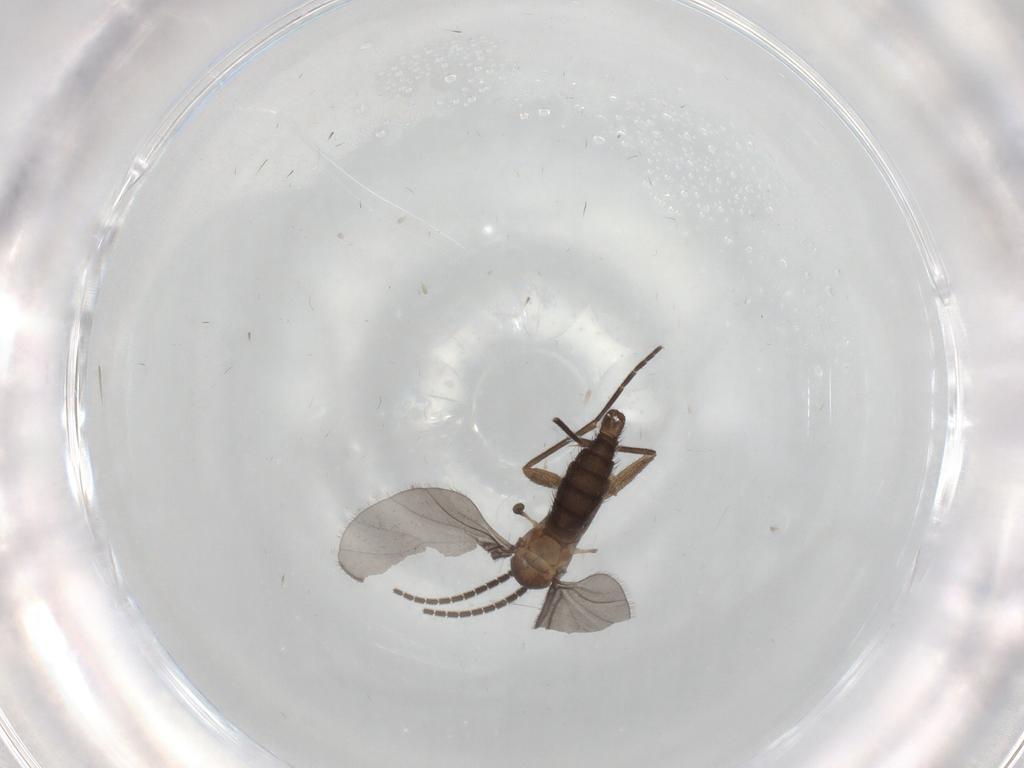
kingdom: Animalia
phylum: Arthropoda
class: Insecta
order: Diptera
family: Sciaridae
